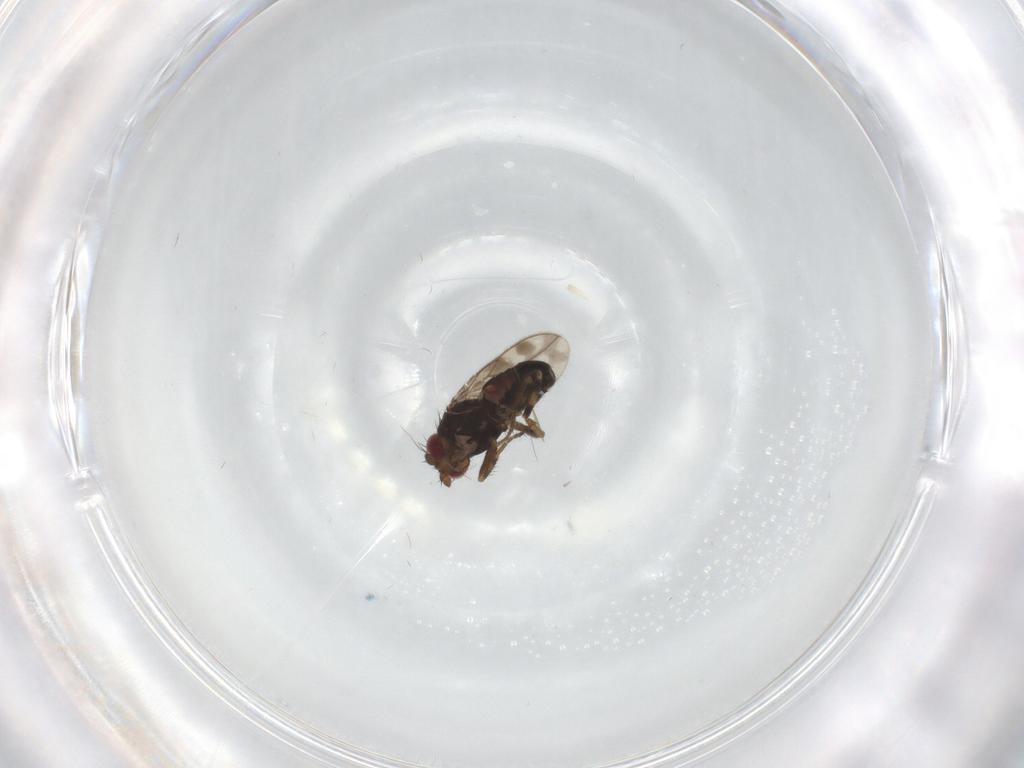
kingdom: Animalia
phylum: Arthropoda
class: Insecta
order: Diptera
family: Sphaeroceridae
